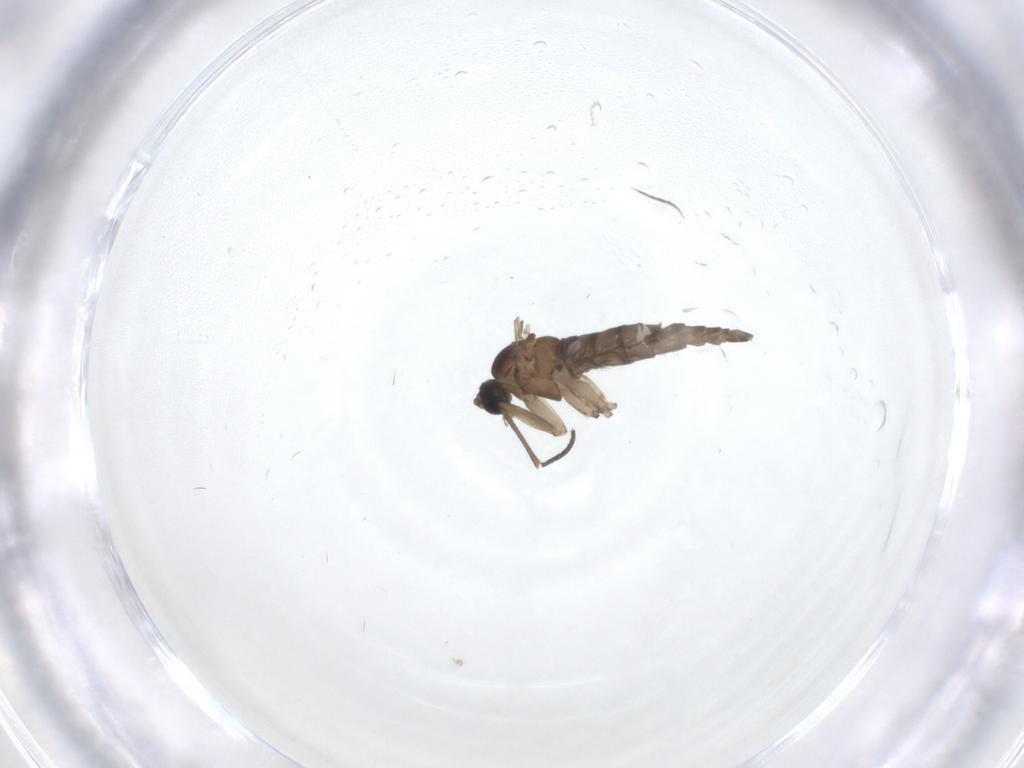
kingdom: Animalia
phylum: Arthropoda
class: Insecta
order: Diptera
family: Sciaridae
